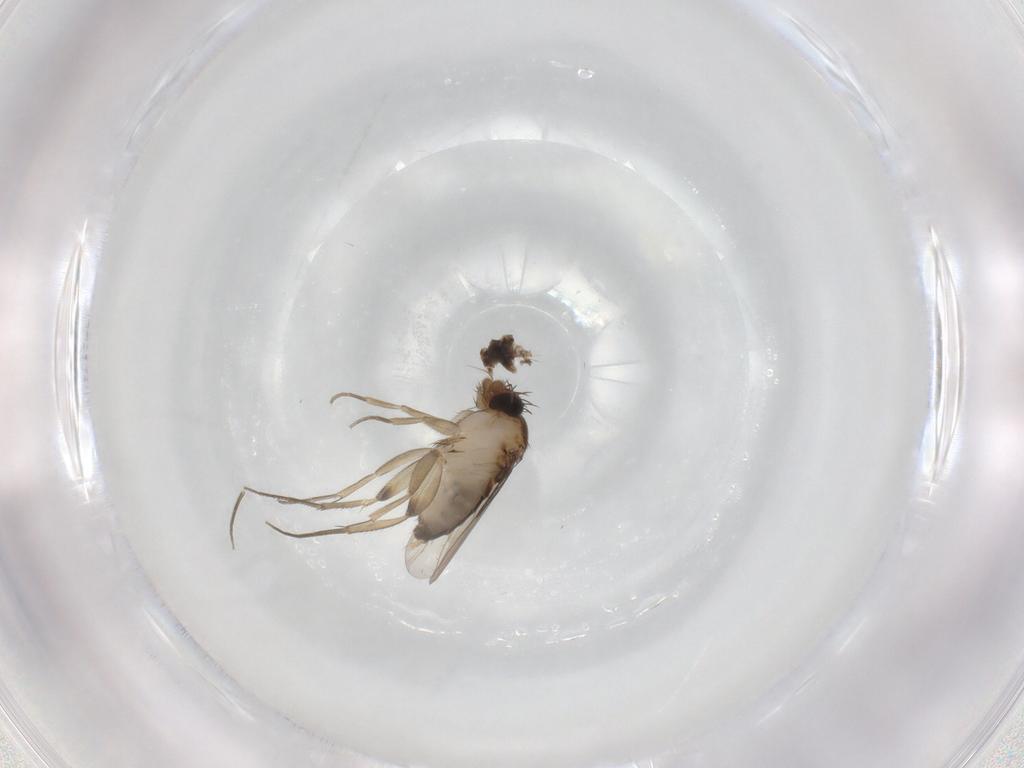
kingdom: Animalia
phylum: Arthropoda
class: Insecta
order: Diptera
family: Phoridae
